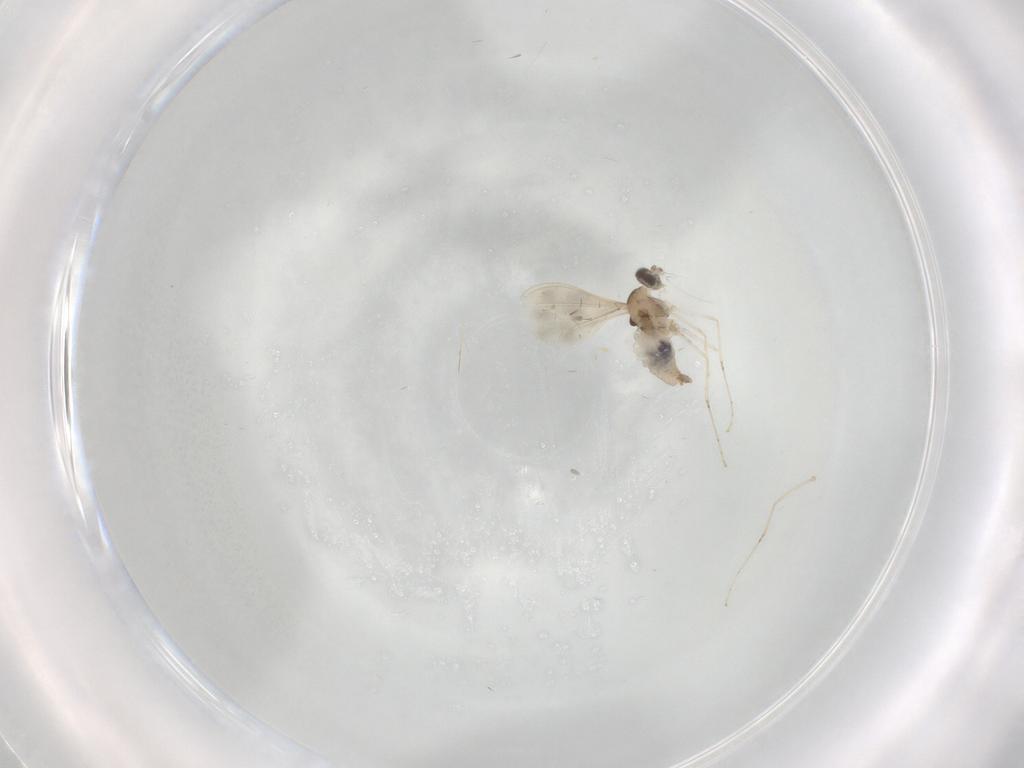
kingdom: Animalia
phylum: Arthropoda
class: Insecta
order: Diptera
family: Cecidomyiidae
